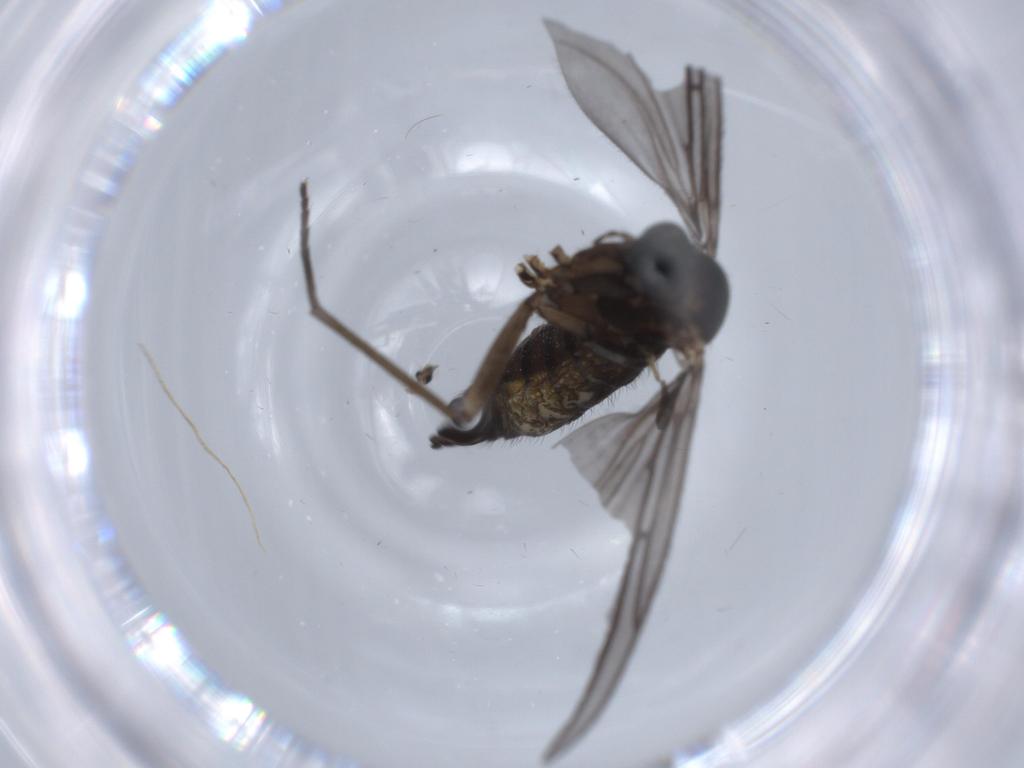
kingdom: Animalia
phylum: Arthropoda
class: Insecta
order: Diptera
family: Sciaridae
